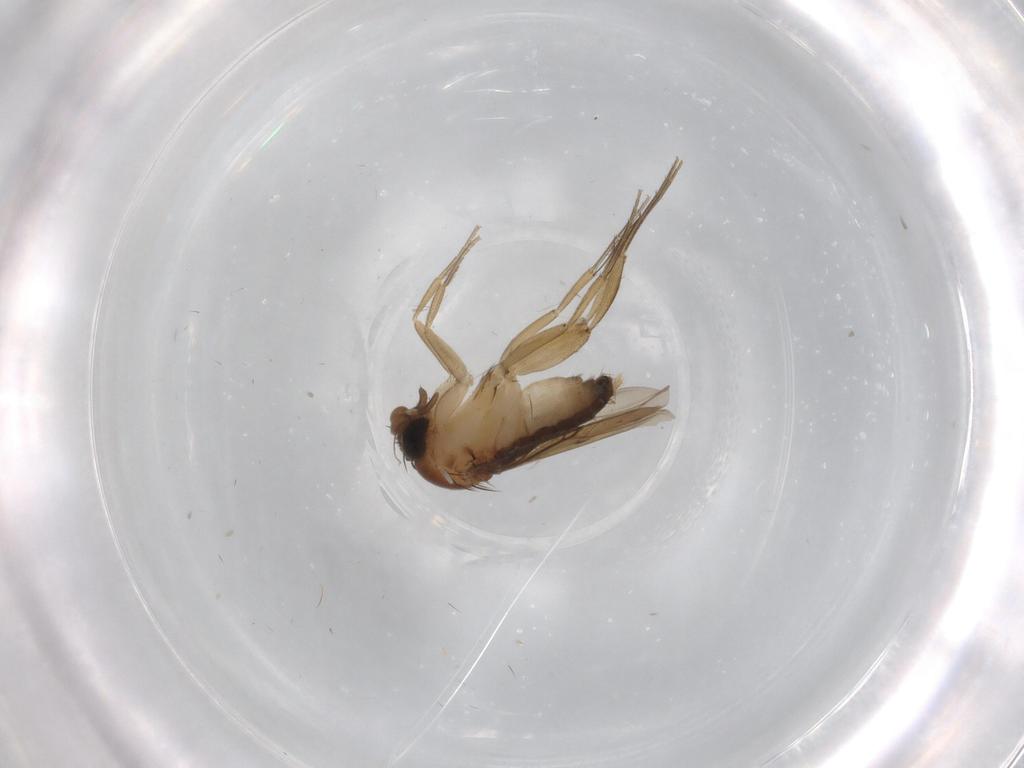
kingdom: Animalia
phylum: Arthropoda
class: Insecta
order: Diptera
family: Phoridae
